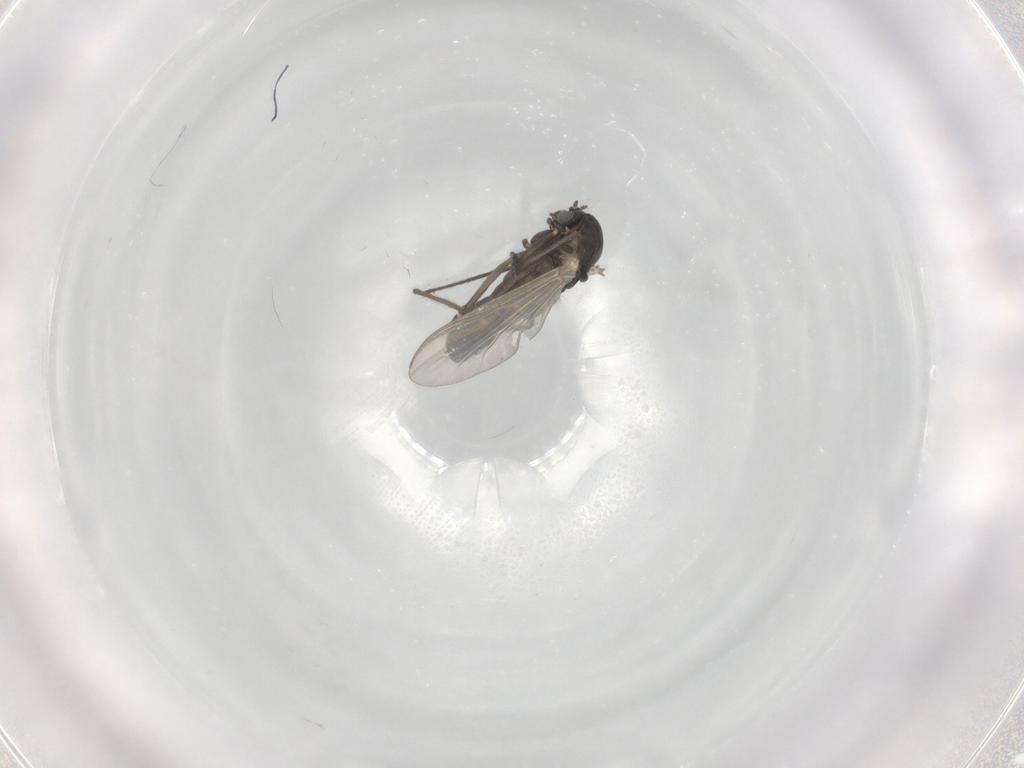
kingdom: Animalia
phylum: Arthropoda
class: Insecta
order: Diptera
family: Cecidomyiidae
